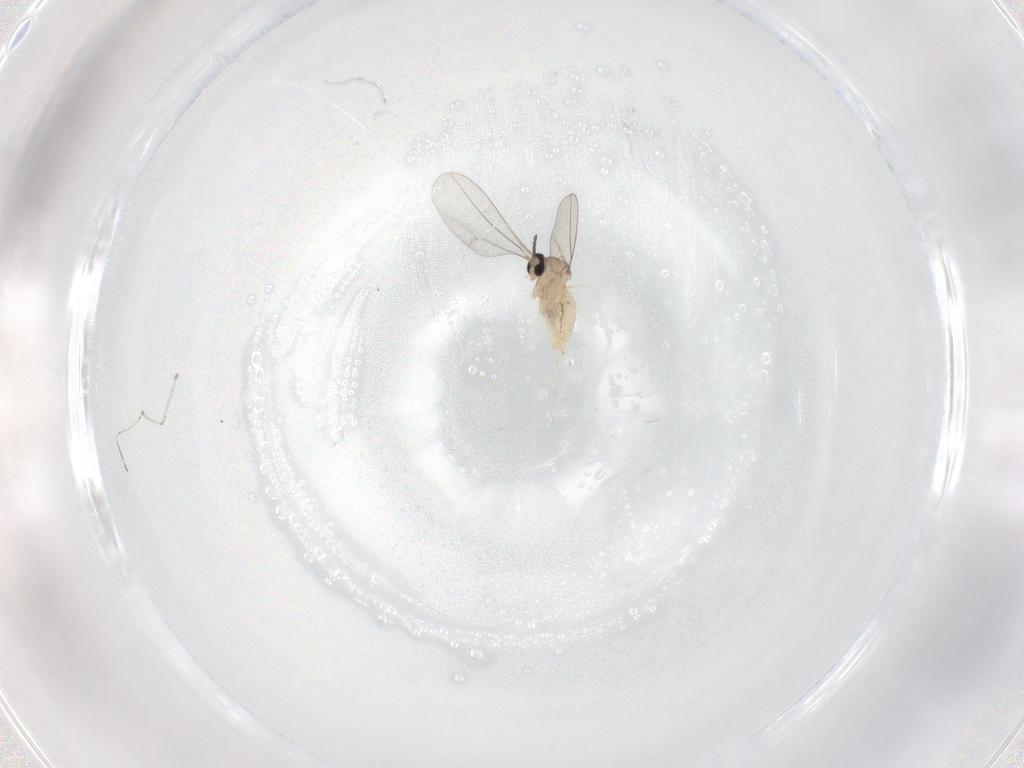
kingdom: Animalia
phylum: Arthropoda
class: Insecta
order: Diptera
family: Cecidomyiidae
